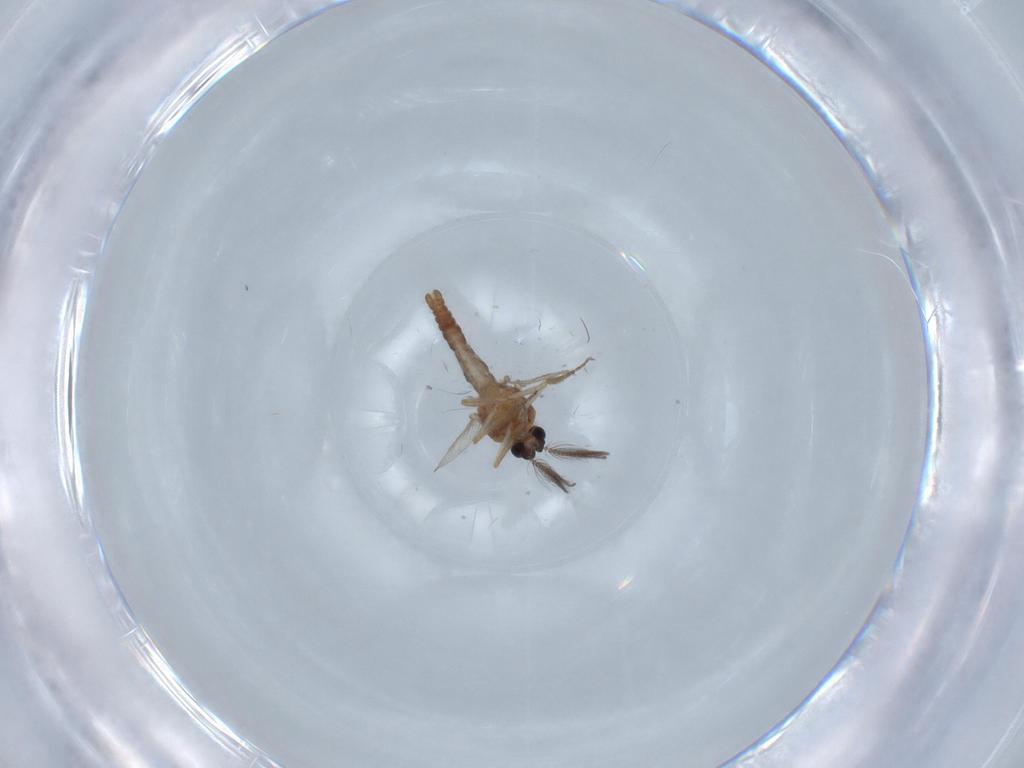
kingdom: Animalia
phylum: Arthropoda
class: Insecta
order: Diptera
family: Ceratopogonidae
